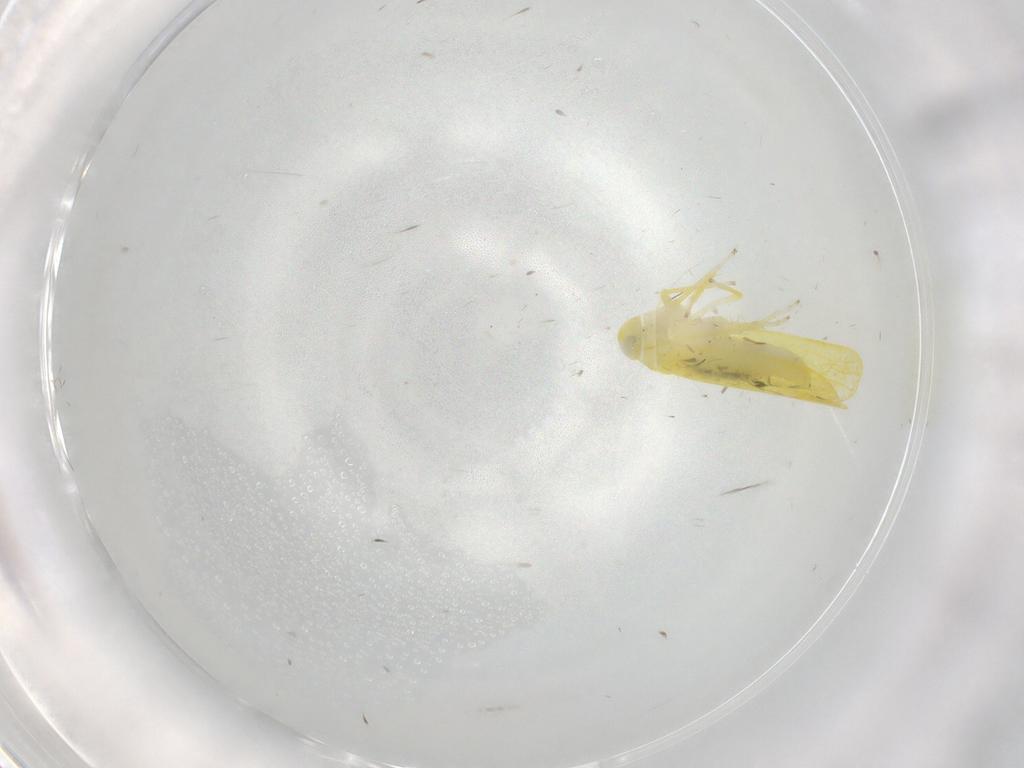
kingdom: Animalia
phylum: Arthropoda
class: Insecta
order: Hemiptera
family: Cicadellidae
